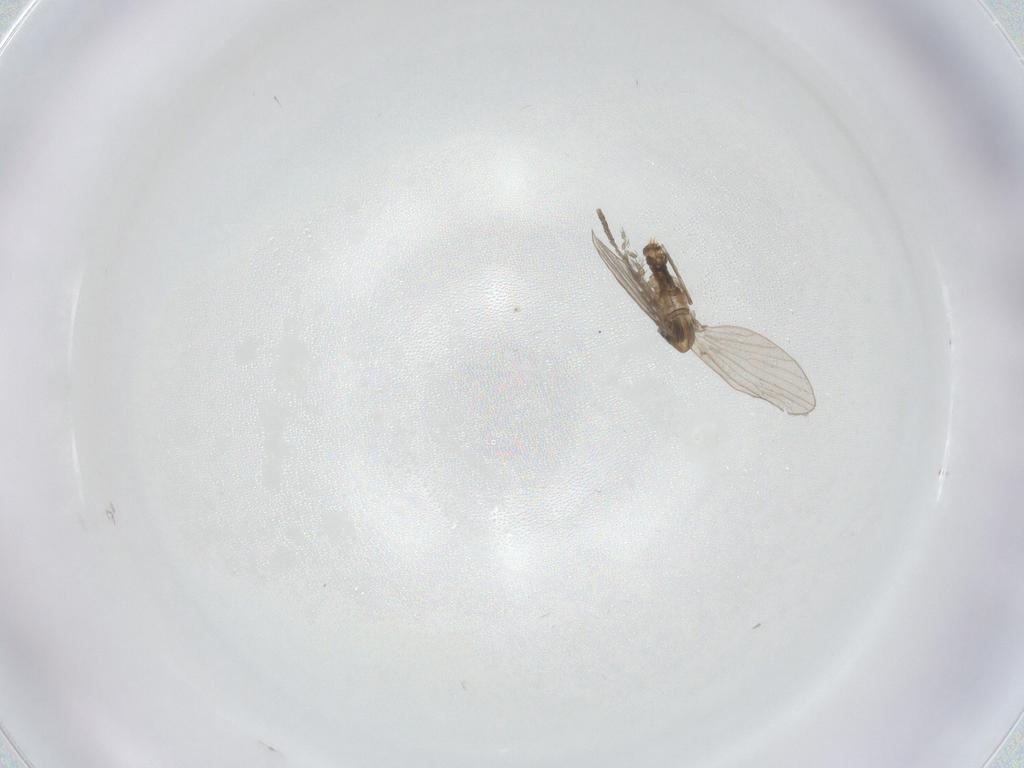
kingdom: Animalia
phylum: Arthropoda
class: Insecta
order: Diptera
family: Psychodidae
